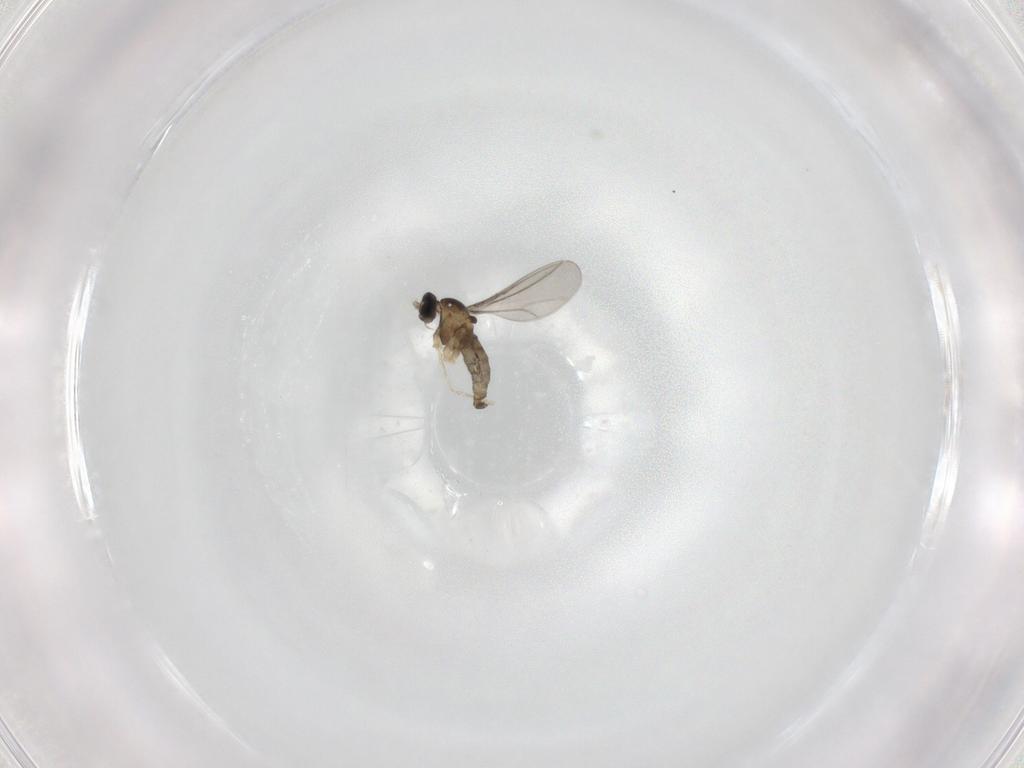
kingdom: Animalia
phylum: Arthropoda
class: Insecta
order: Diptera
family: Cecidomyiidae
